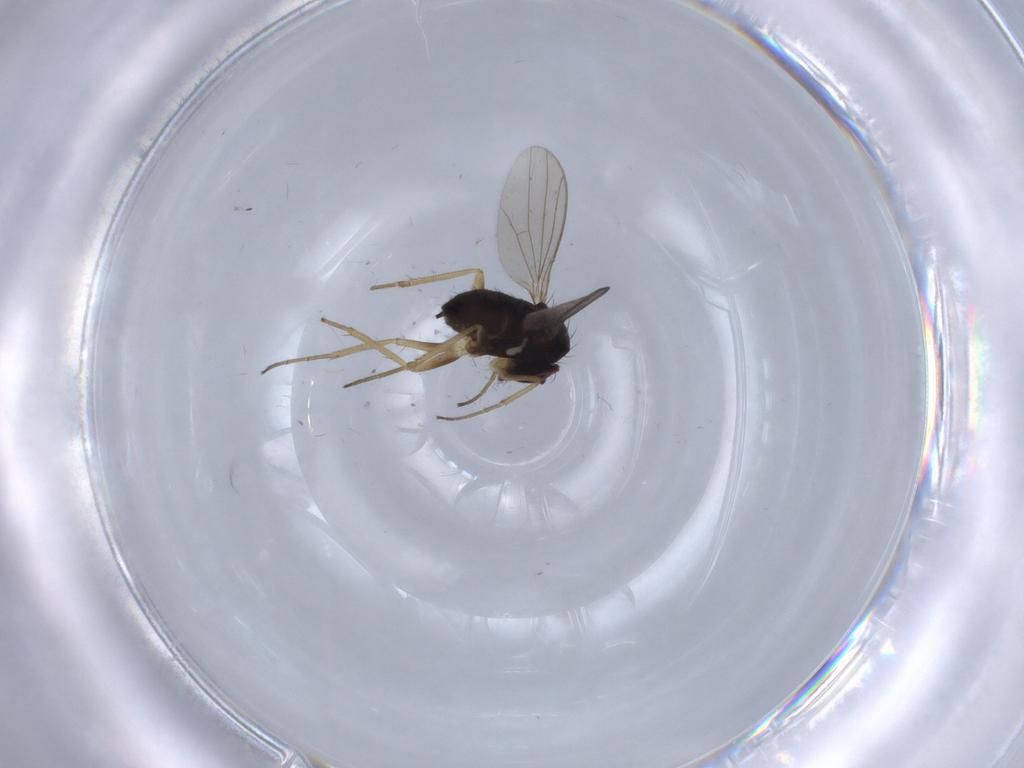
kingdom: Animalia
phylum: Arthropoda
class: Insecta
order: Diptera
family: Dolichopodidae
